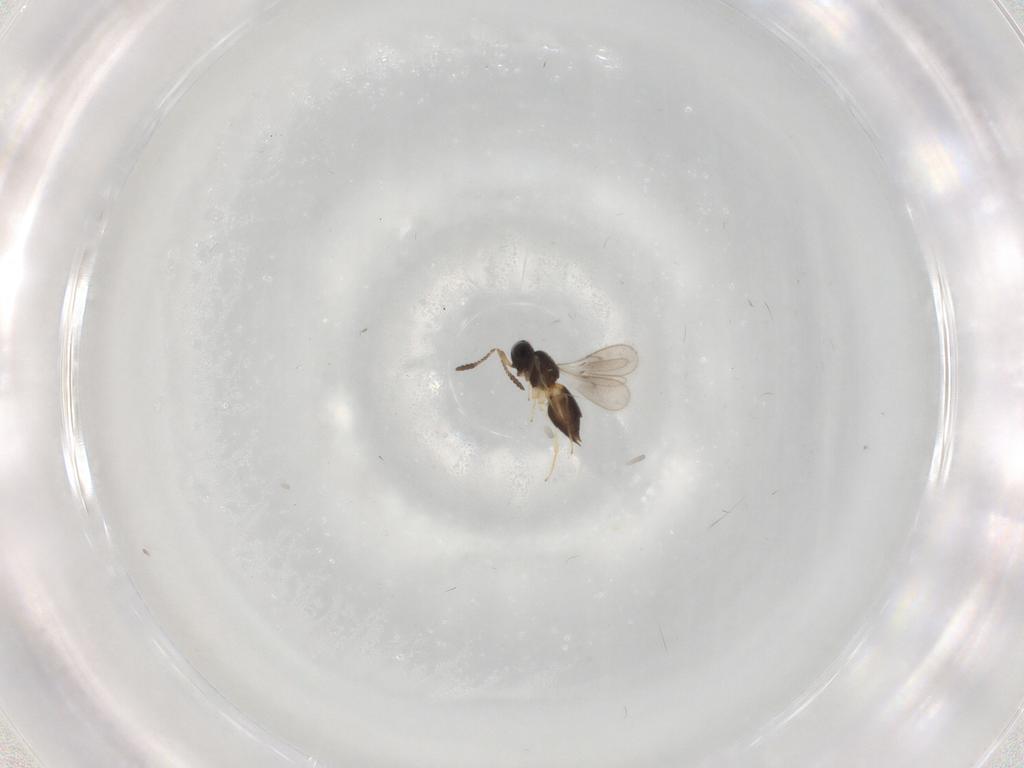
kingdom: Animalia
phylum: Arthropoda
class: Insecta
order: Hymenoptera
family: Scelionidae
